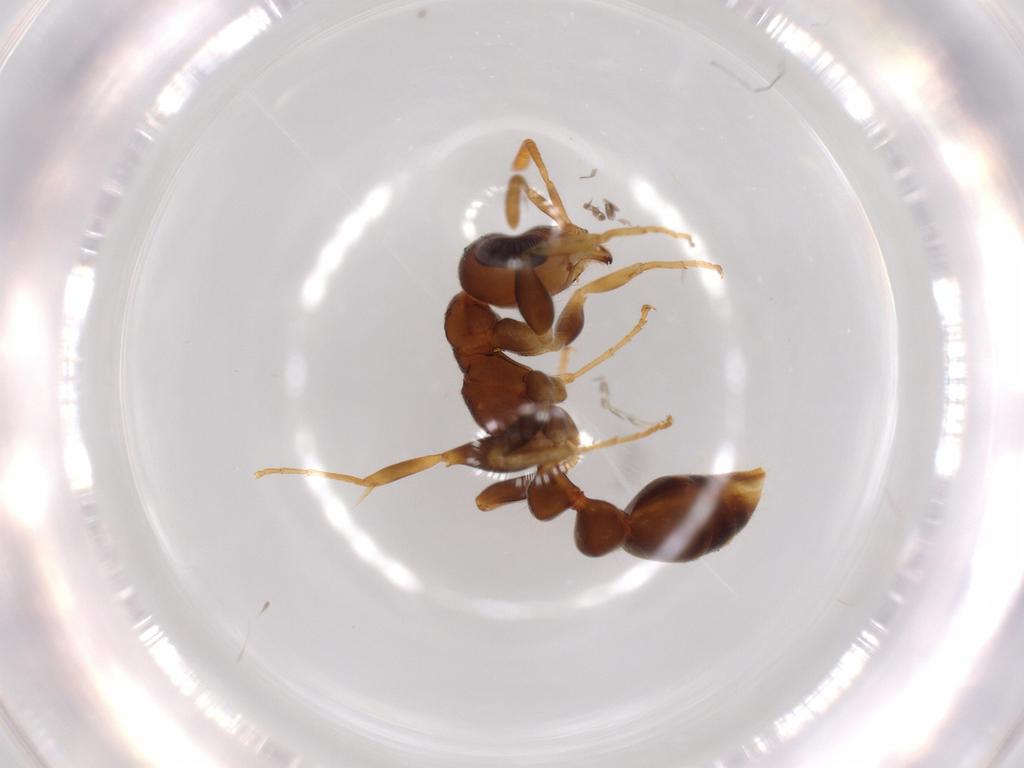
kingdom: Animalia
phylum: Arthropoda
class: Insecta
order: Hymenoptera
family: Formicidae
